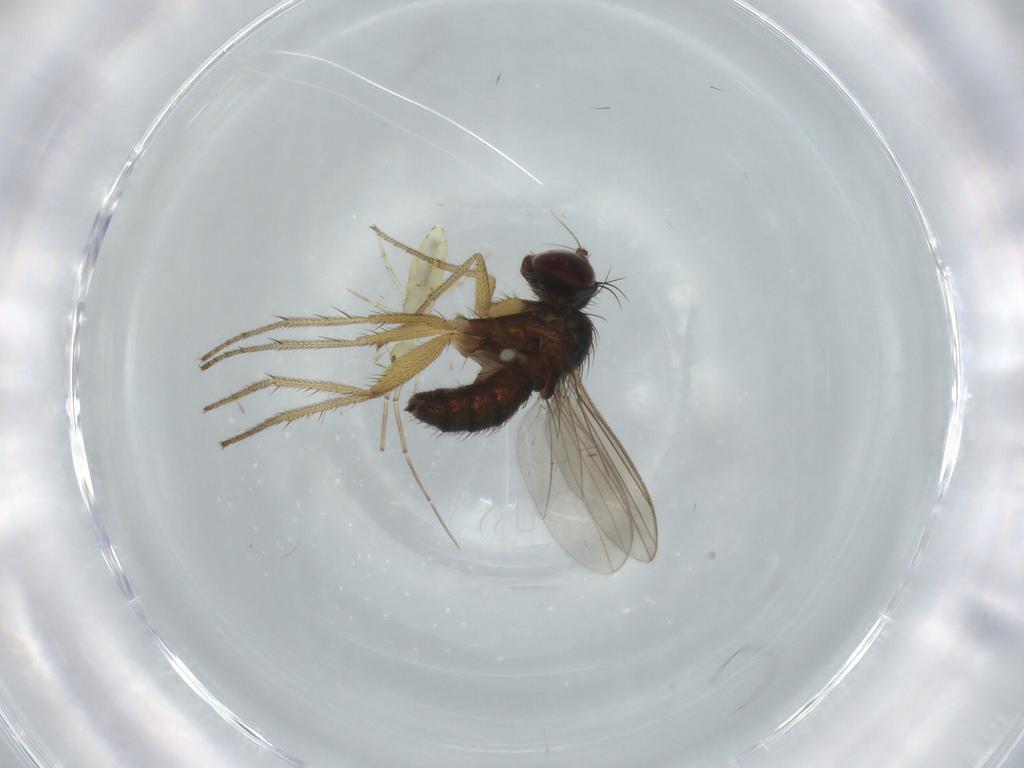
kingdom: Animalia
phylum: Arthropoda
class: Insecta
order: Diptera
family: Dolichopodidae
